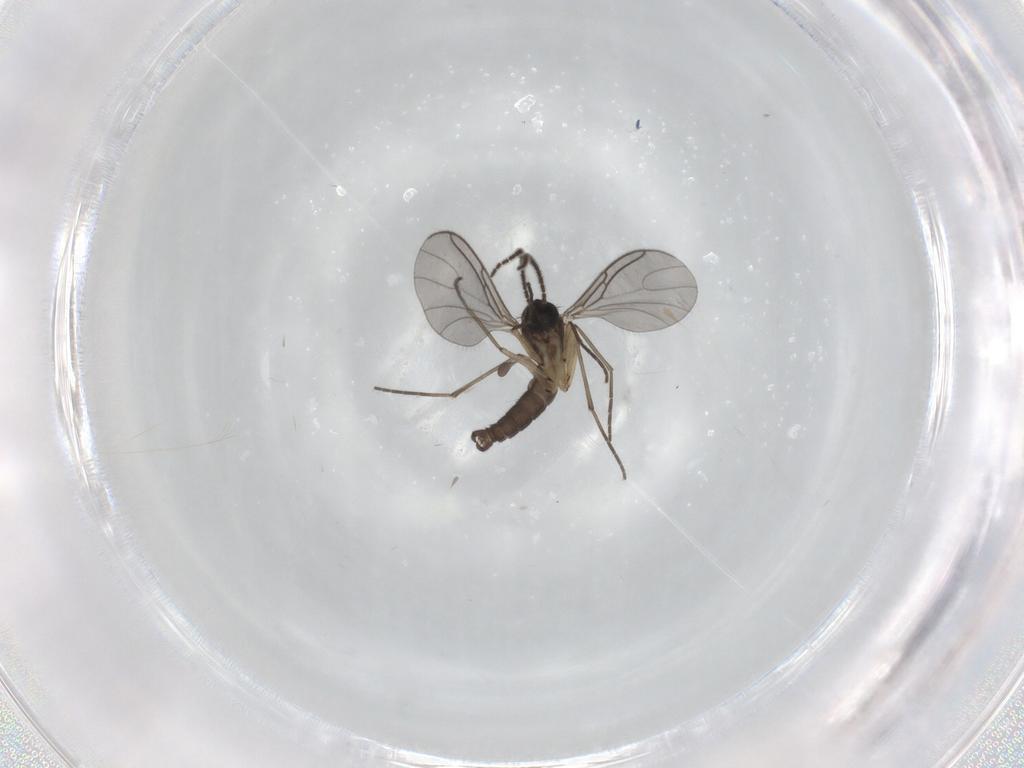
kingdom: Animalia
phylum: Arthropoda
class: Insecta
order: Diptera
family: Sciaridae
